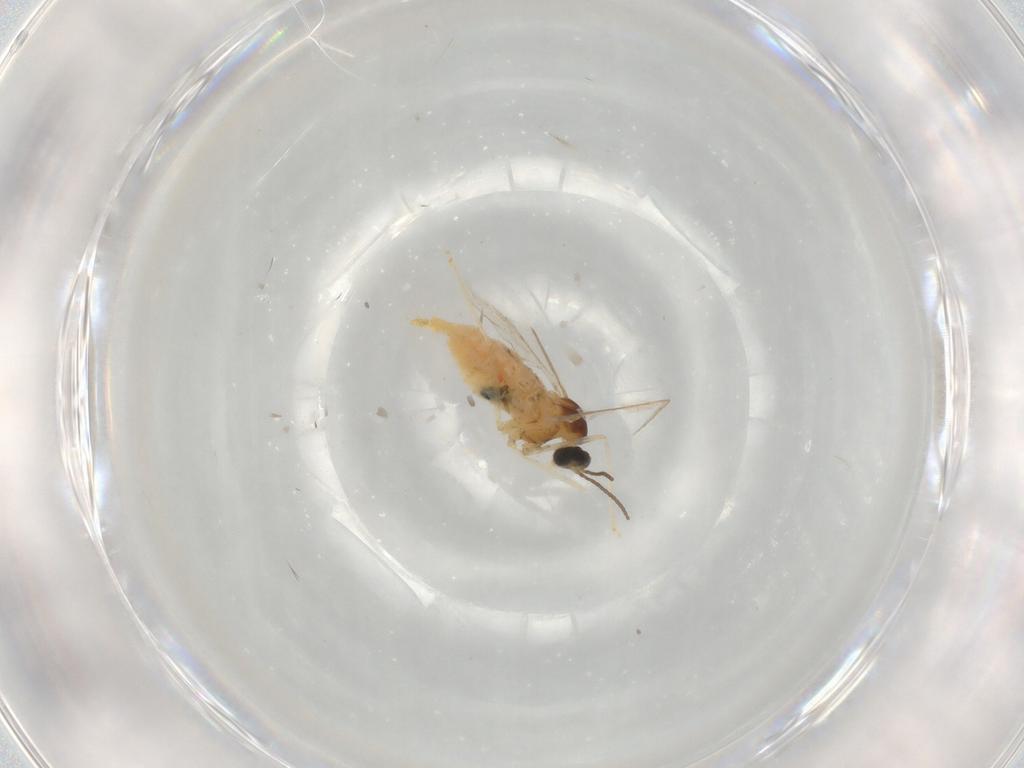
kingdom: Animalia
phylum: Arthropoda
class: Insecta
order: Diptera
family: Cecidomyiidae
